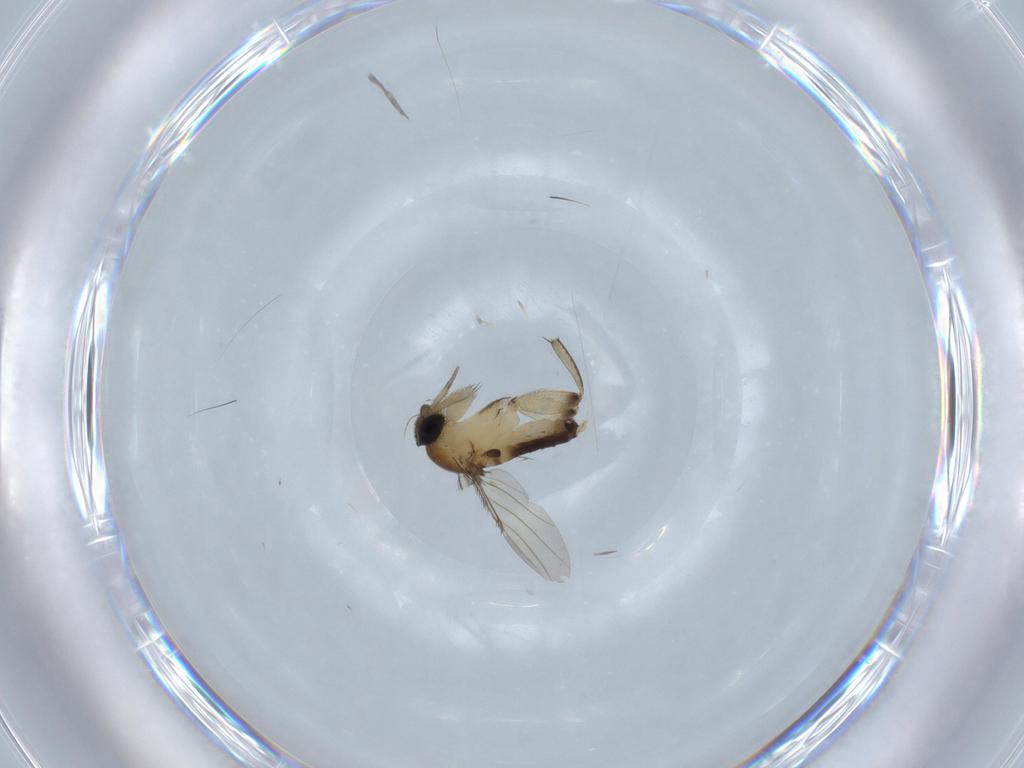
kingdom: Animalia
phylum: Arthropoda
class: Insecta
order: Diptera
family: Phoridae
